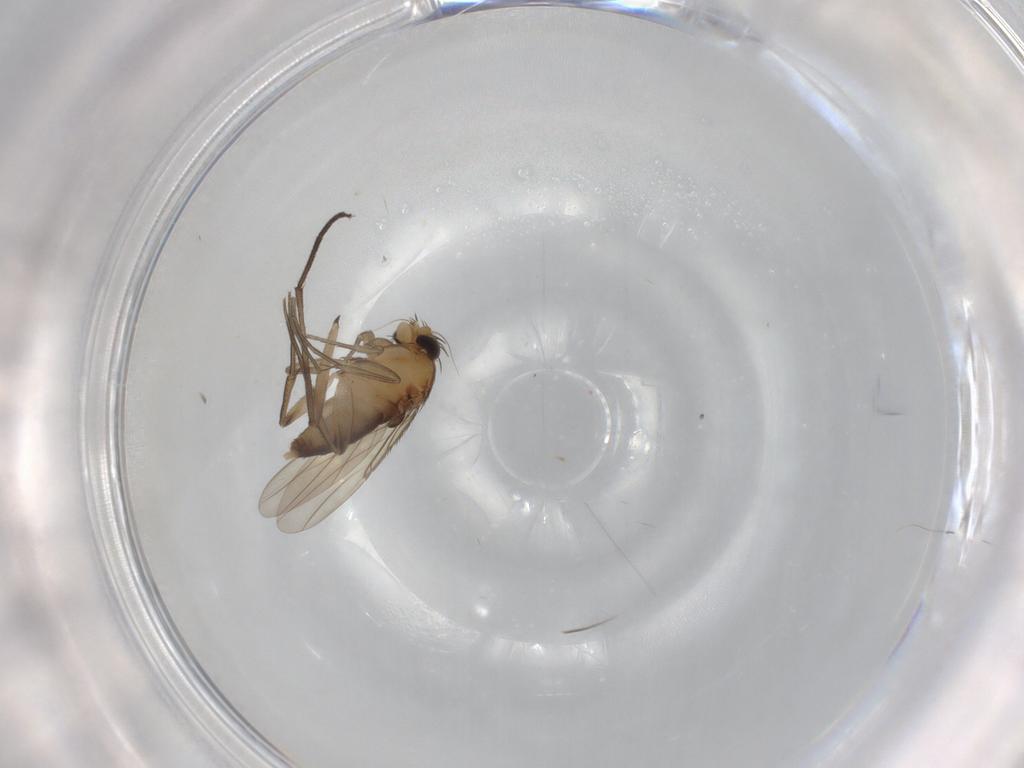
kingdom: Animalia
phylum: Arthropoda
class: Insecta
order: Diptera
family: Phoridae
